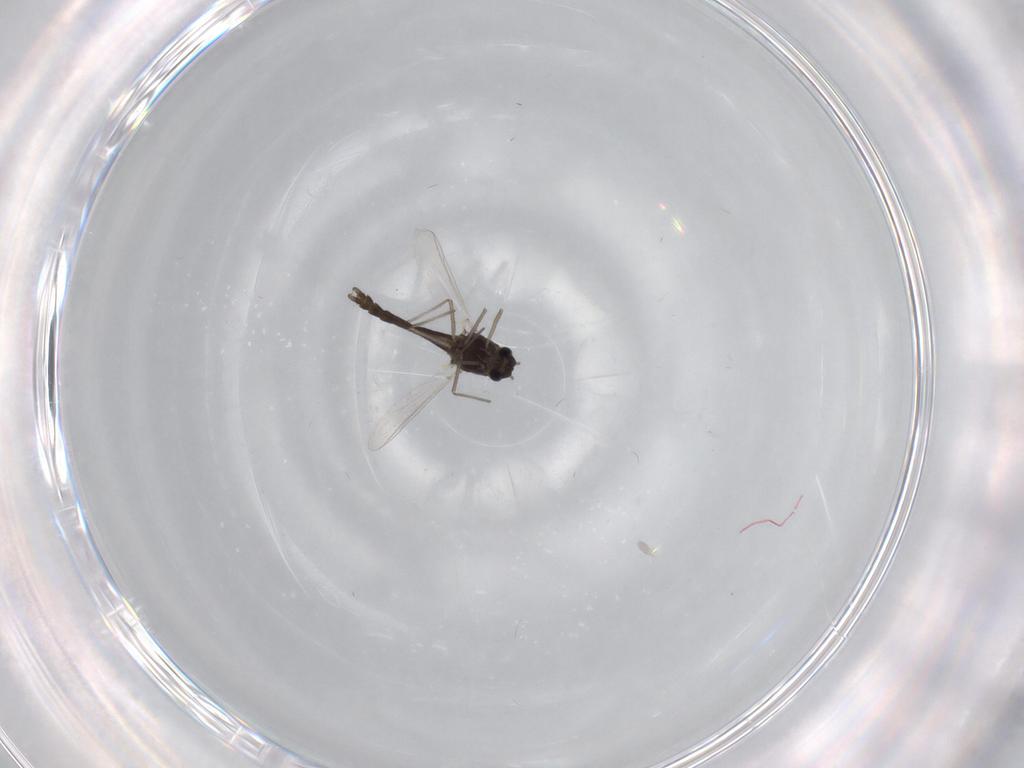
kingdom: Animalia
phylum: Arthropoda
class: Insecta
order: Diptera
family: Chironomidae
